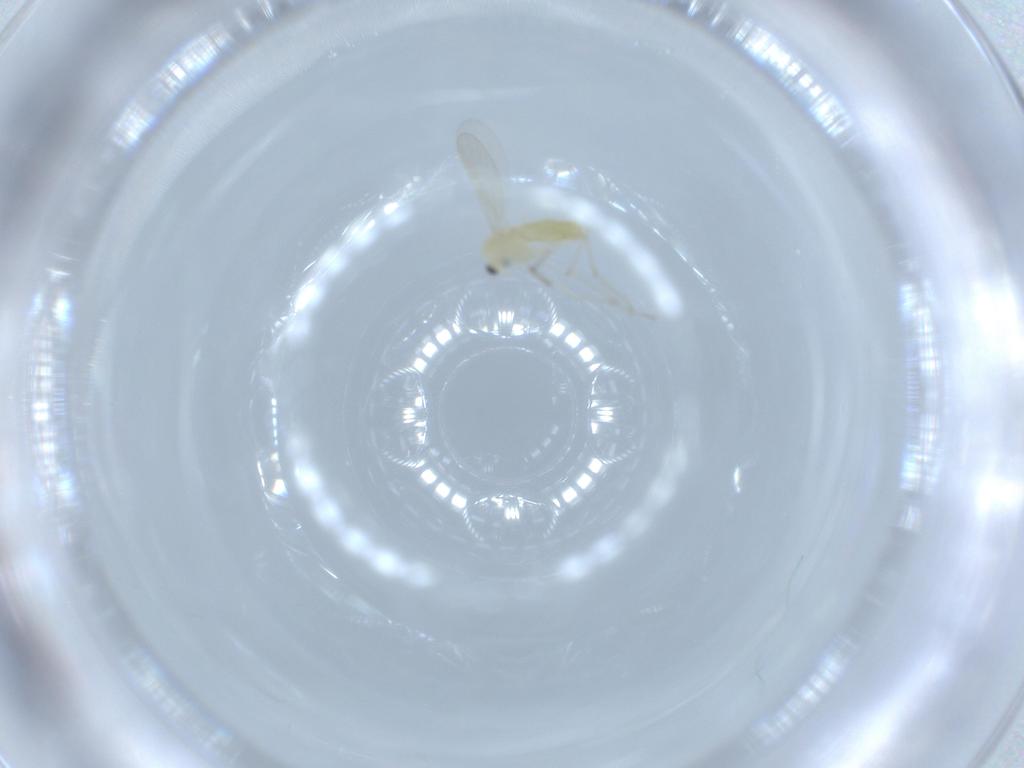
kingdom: Animalia
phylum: Arthropoda
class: Insecta
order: Diptera
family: Chironomidae
